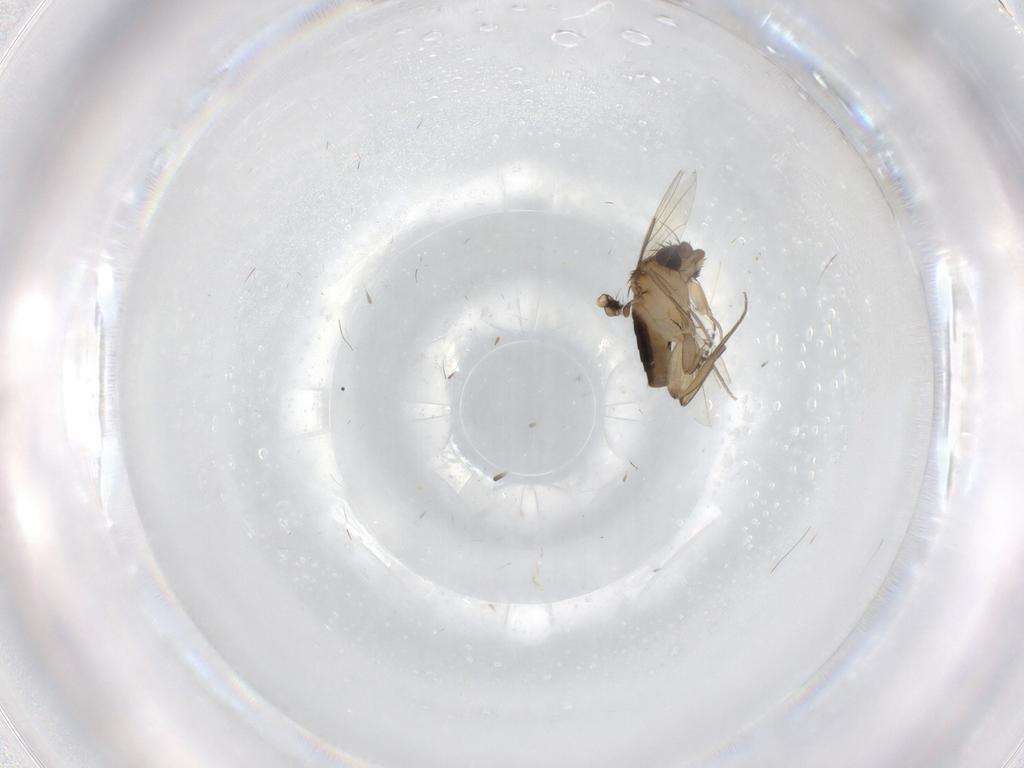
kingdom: Animalia
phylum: Arthropoda
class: Insecta
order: Diptera
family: Phoridae
